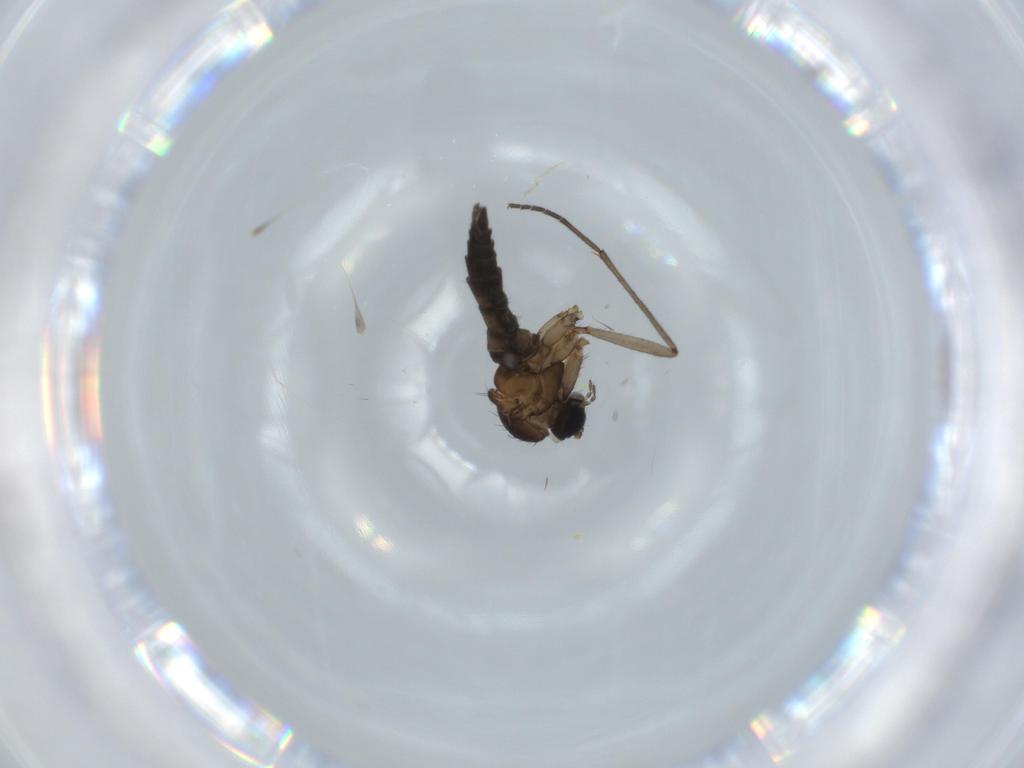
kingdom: Animalia
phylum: Arthropoda
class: Insecta
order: Diptera
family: Sciaridae
